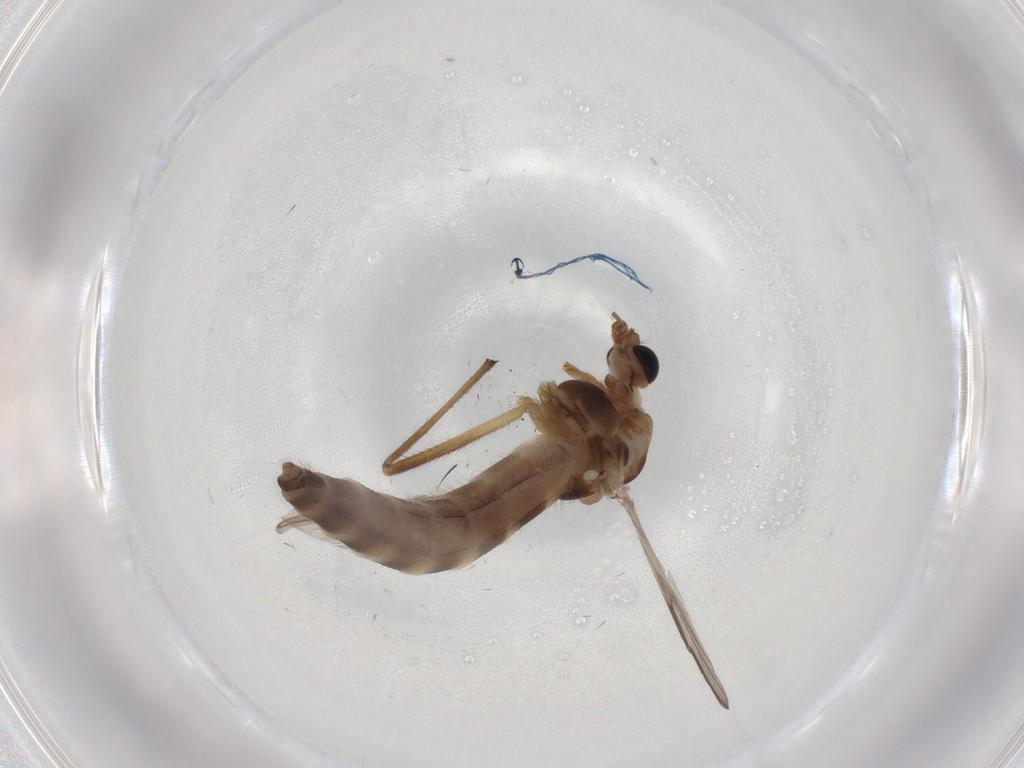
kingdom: Animalia
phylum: Arthropoda
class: Insecta
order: Diptera
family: Chironomidae
